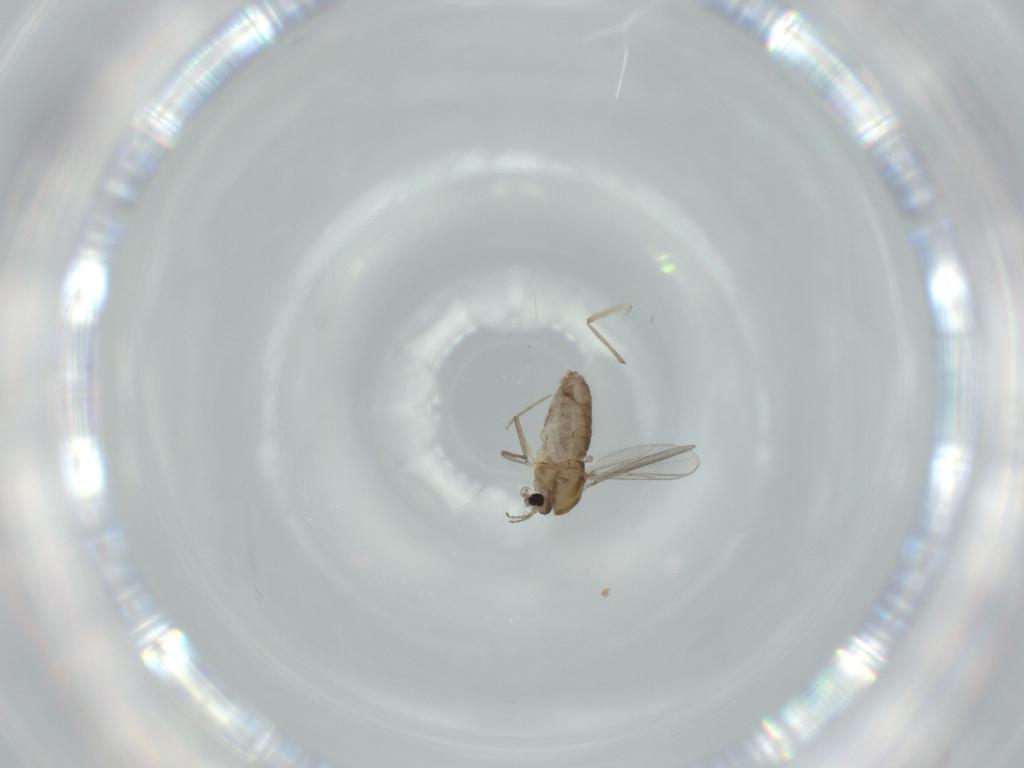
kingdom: Animalia
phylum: Arthropoda
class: Insecta
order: Diptera
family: Chironomidae
